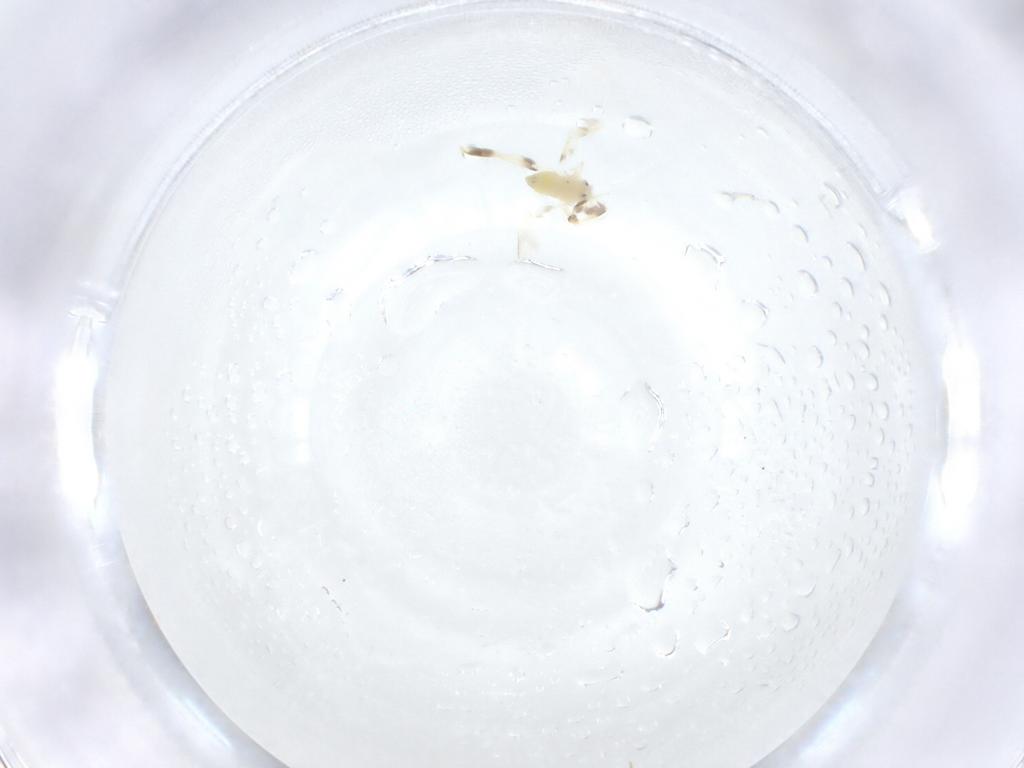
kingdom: Animalia
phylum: Arthropoda
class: Insecta
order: Hemiptera
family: Aleyrodidae
